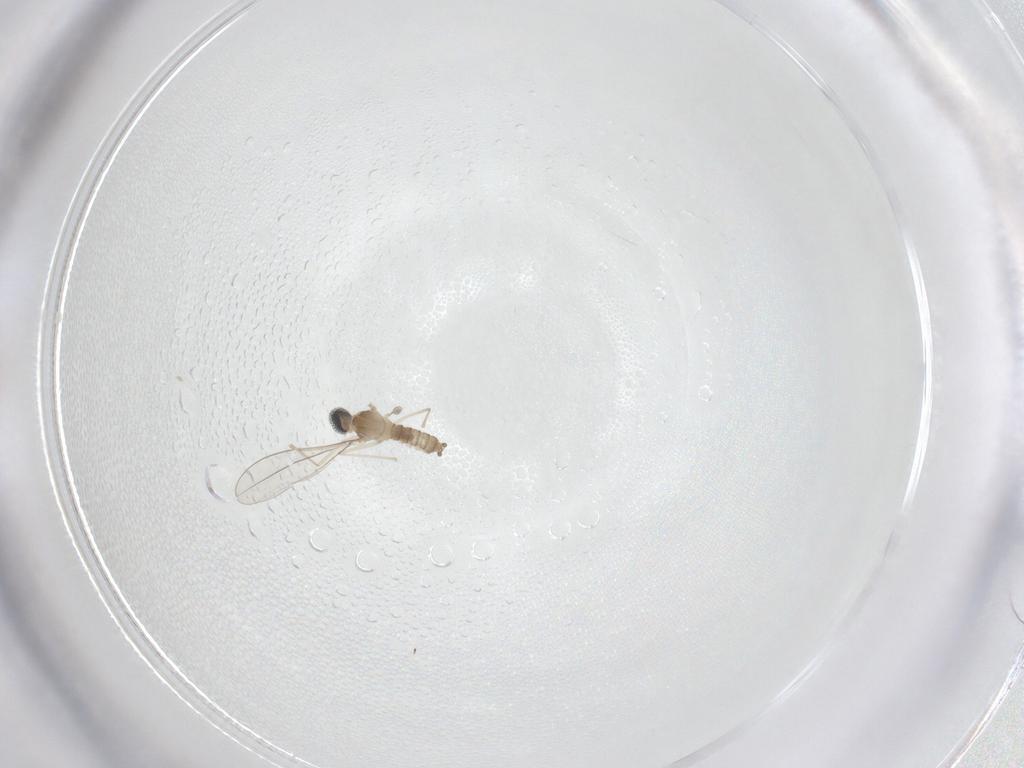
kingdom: Animalia
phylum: Arthropoda
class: Insecta
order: Diptera
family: Cecidomyiidae
